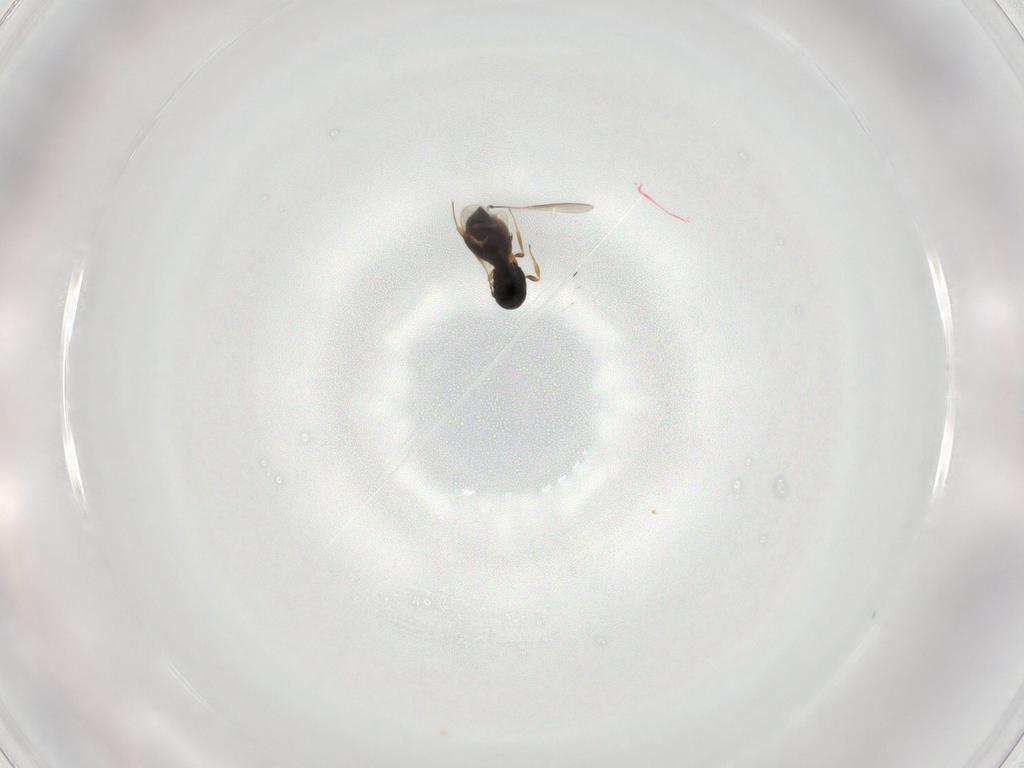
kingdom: Animalia
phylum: Arthropoda
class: Insecta
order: Hymenoptera
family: Scelionidae
